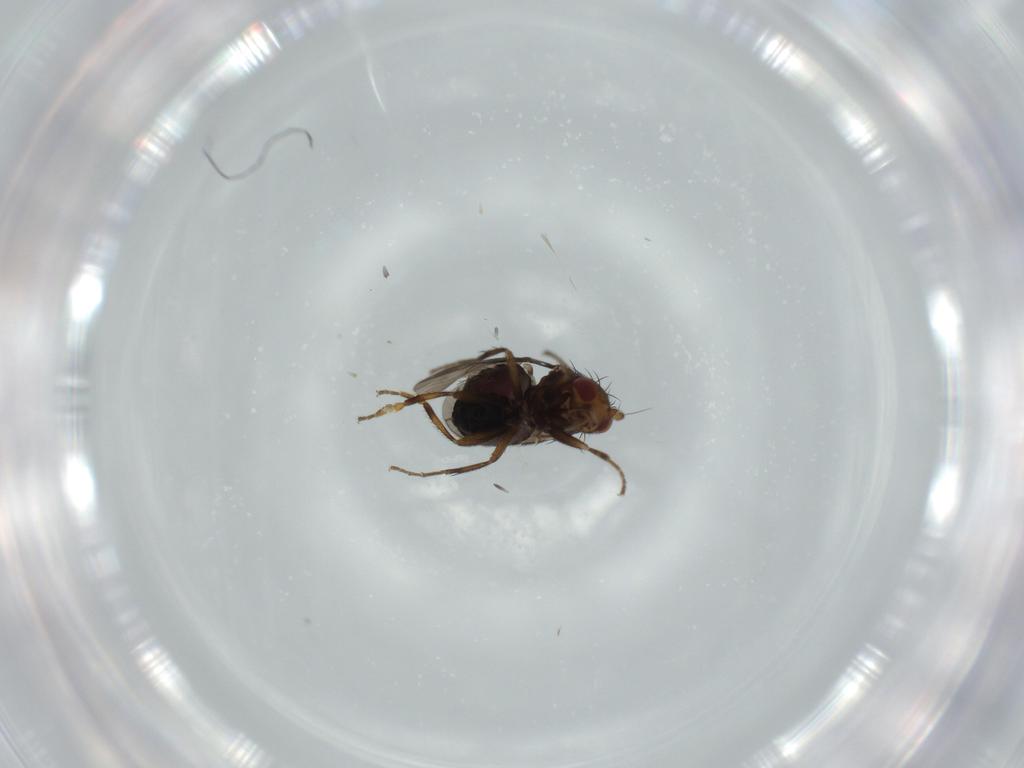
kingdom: Animalia
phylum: Arthropoda
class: Insecta
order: Diptera
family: Sphaeroceridae
